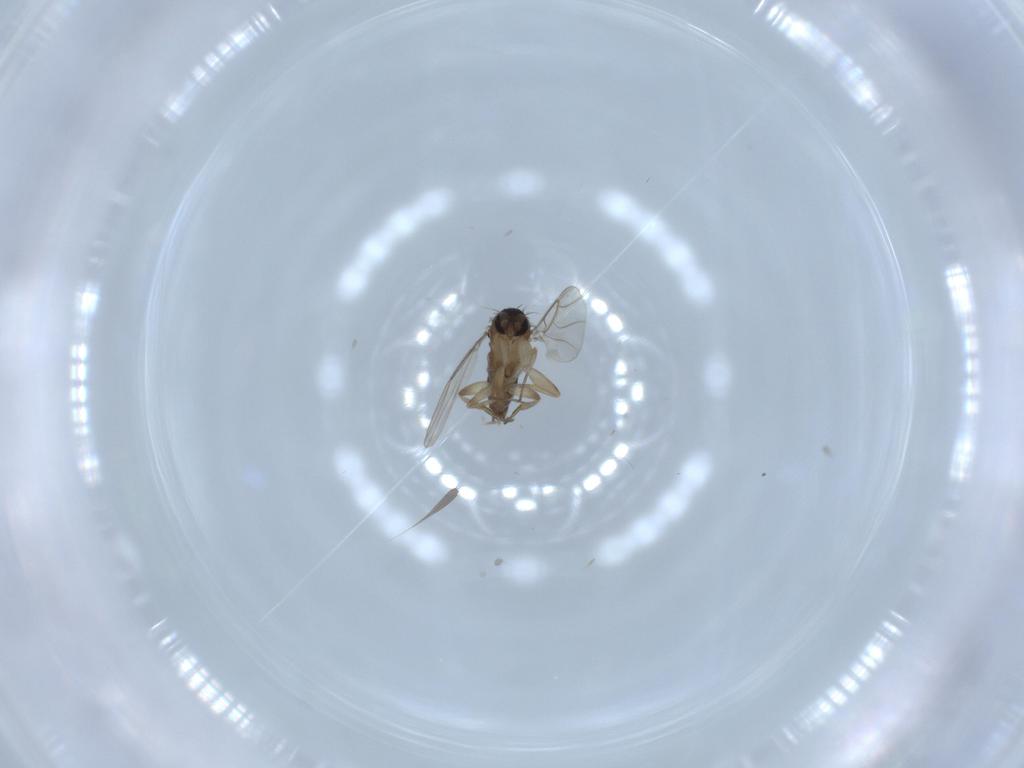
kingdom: Animalia
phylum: Arthropoda
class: Insecta
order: Diptera
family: Phoridae
